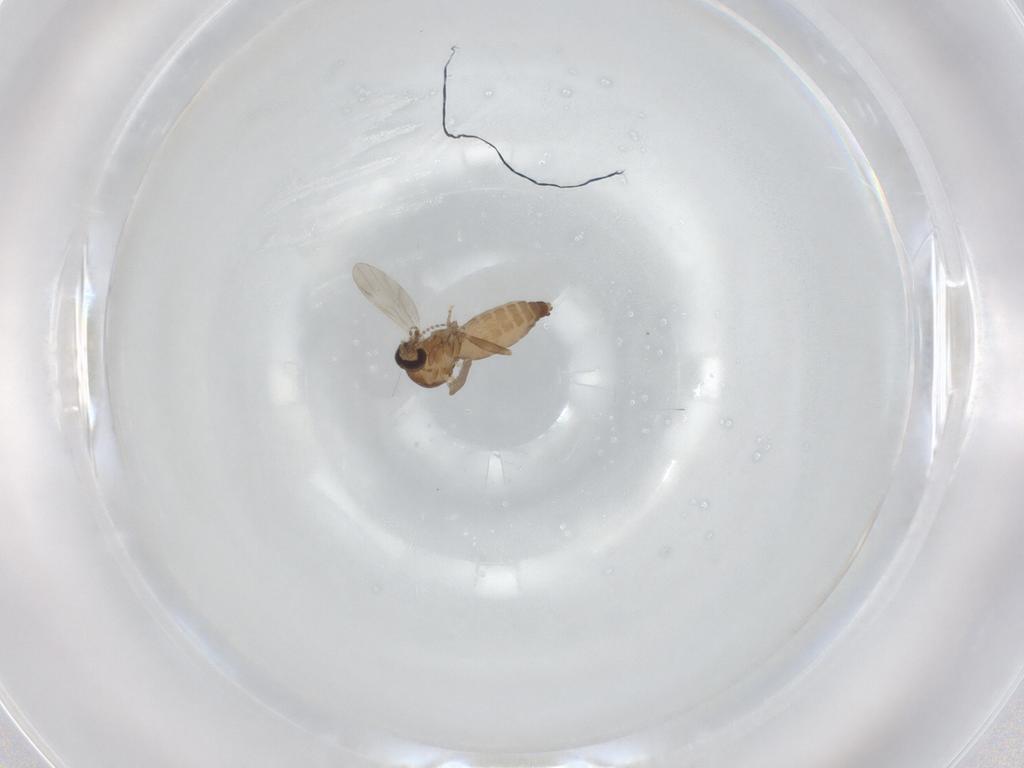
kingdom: Animalia
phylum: Arthropoda
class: Insecta
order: Diptera
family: Ceratopogonidae
